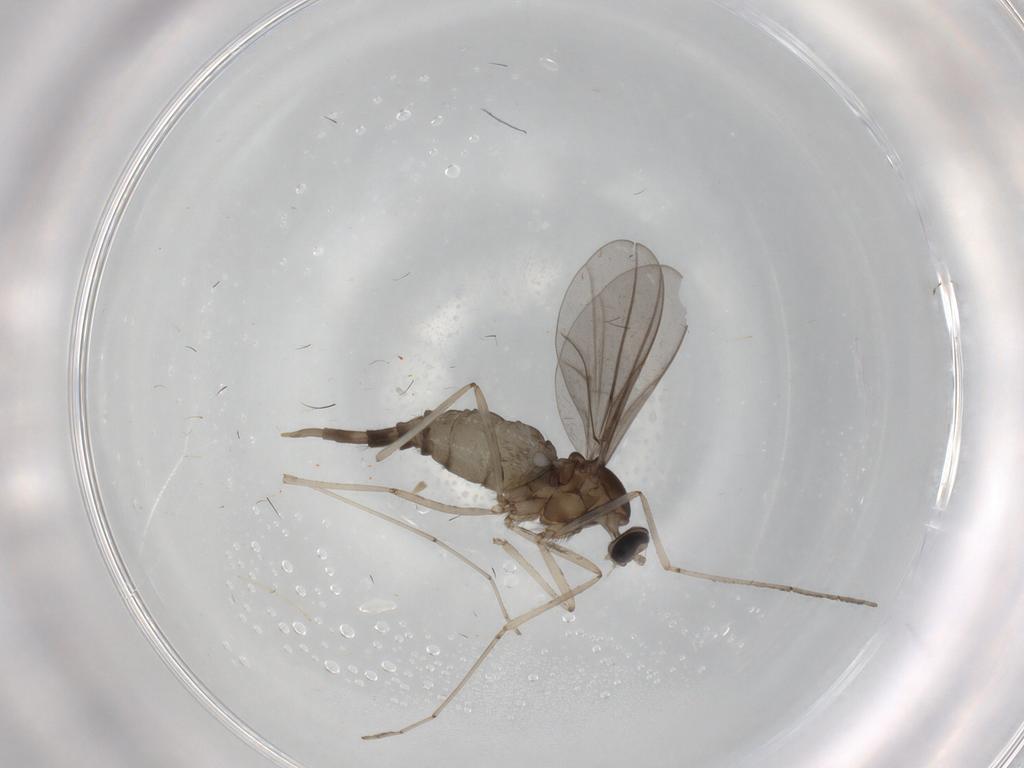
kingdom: Animalia
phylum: Arthropoda
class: Insecta
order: Diptera
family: Cecidomyiidae
